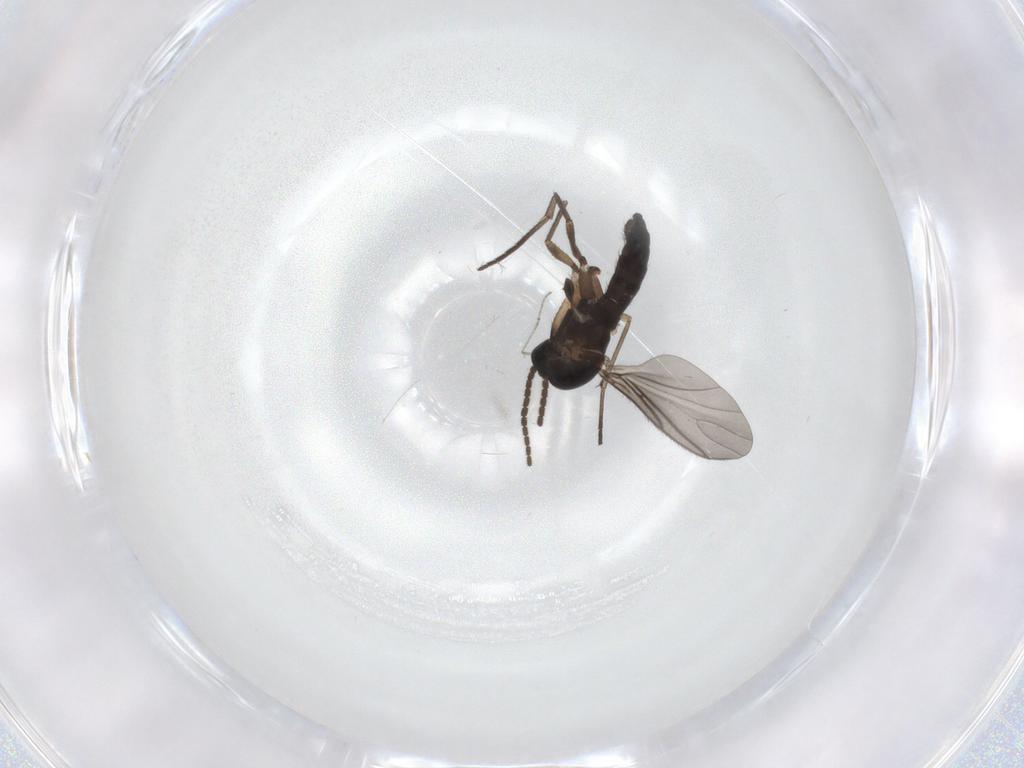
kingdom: Animalia
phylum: Arthropoda
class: Insecta
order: Diptera
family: Sciaridae
